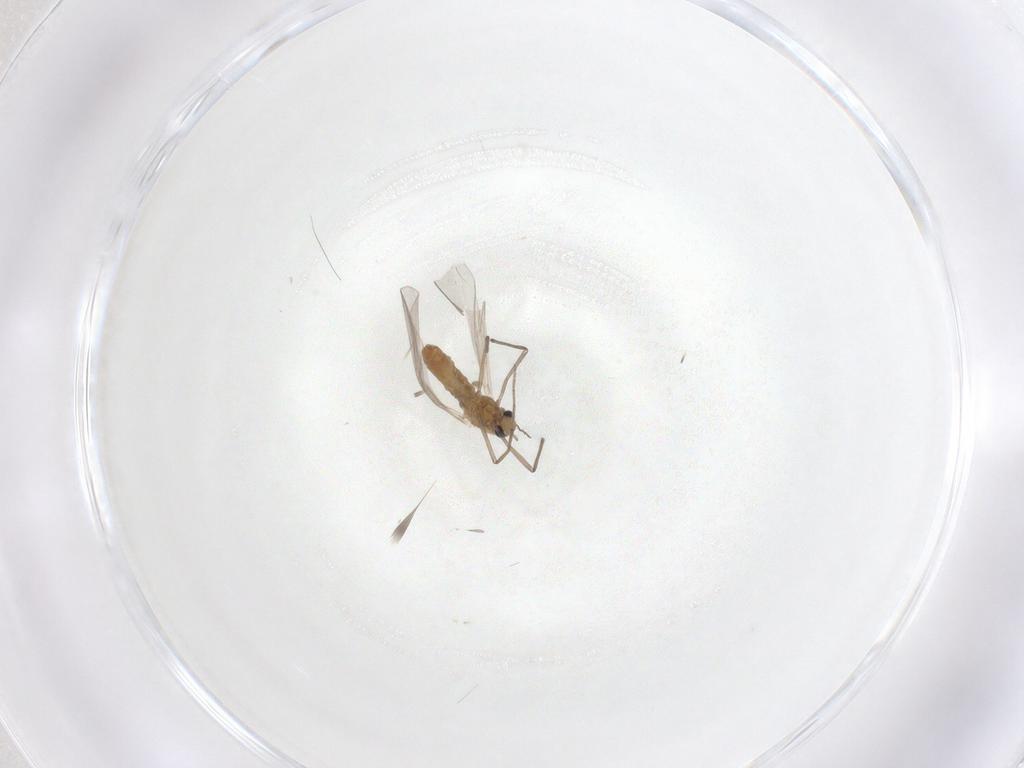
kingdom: Animalia
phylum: Arthropoda
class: Insecta
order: Diptera
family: Chironomidae
